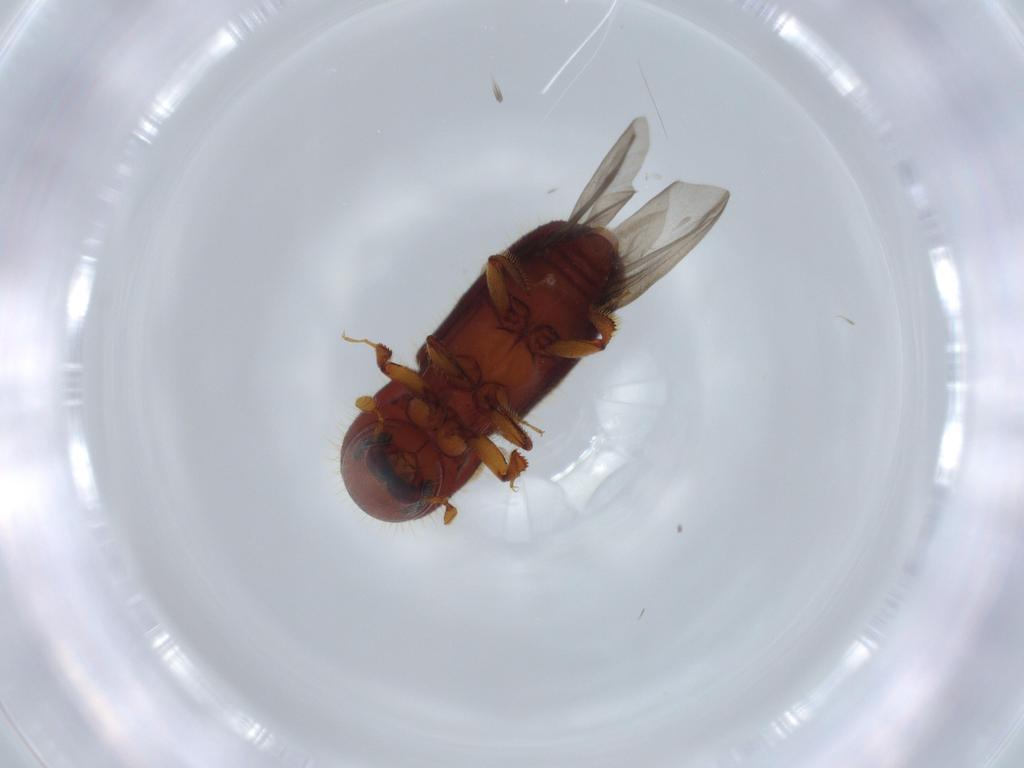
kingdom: Animalia
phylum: Arthropoda
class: Insecta
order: Coleoptera
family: Curculionidae
